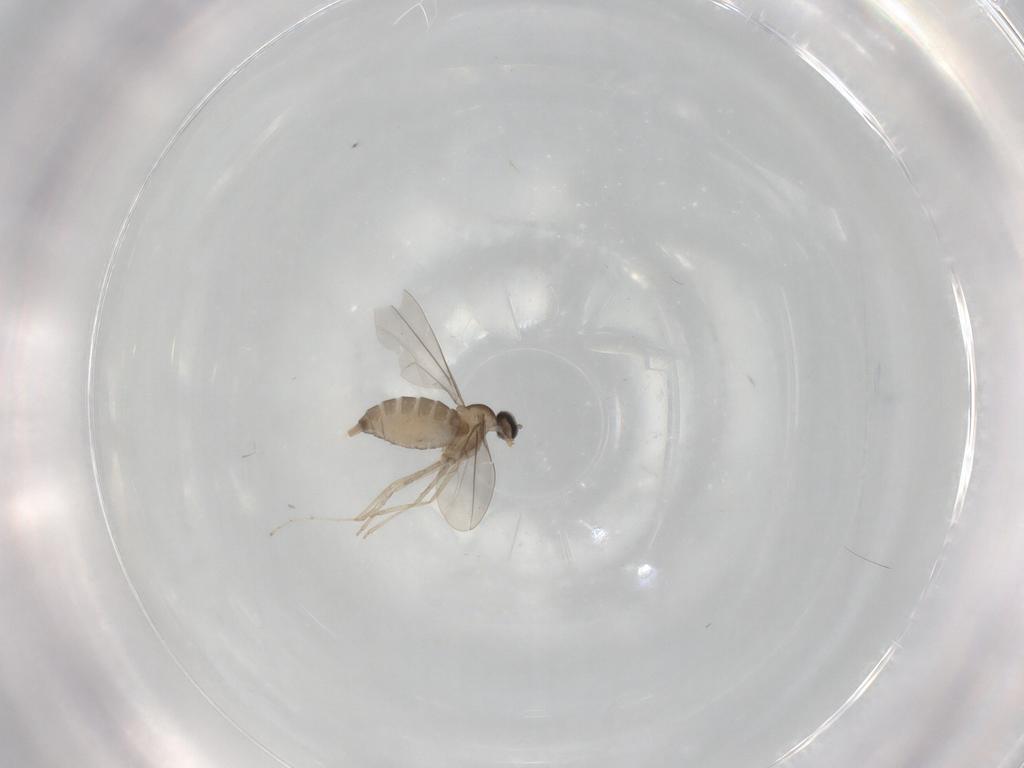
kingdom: Animalia
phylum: Arthropoda
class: Insecta
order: Diptera
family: Cecidomyiidae
